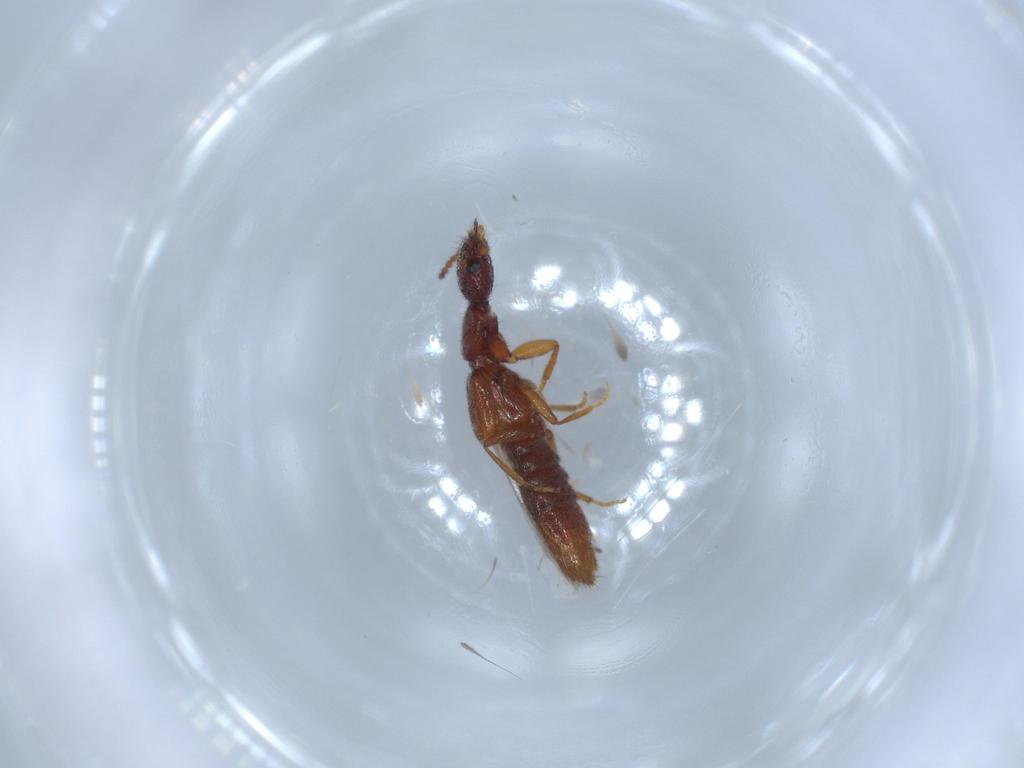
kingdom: Animalia
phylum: Arthropoda
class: Insecta
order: Coleoptera
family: Staphylinidae
